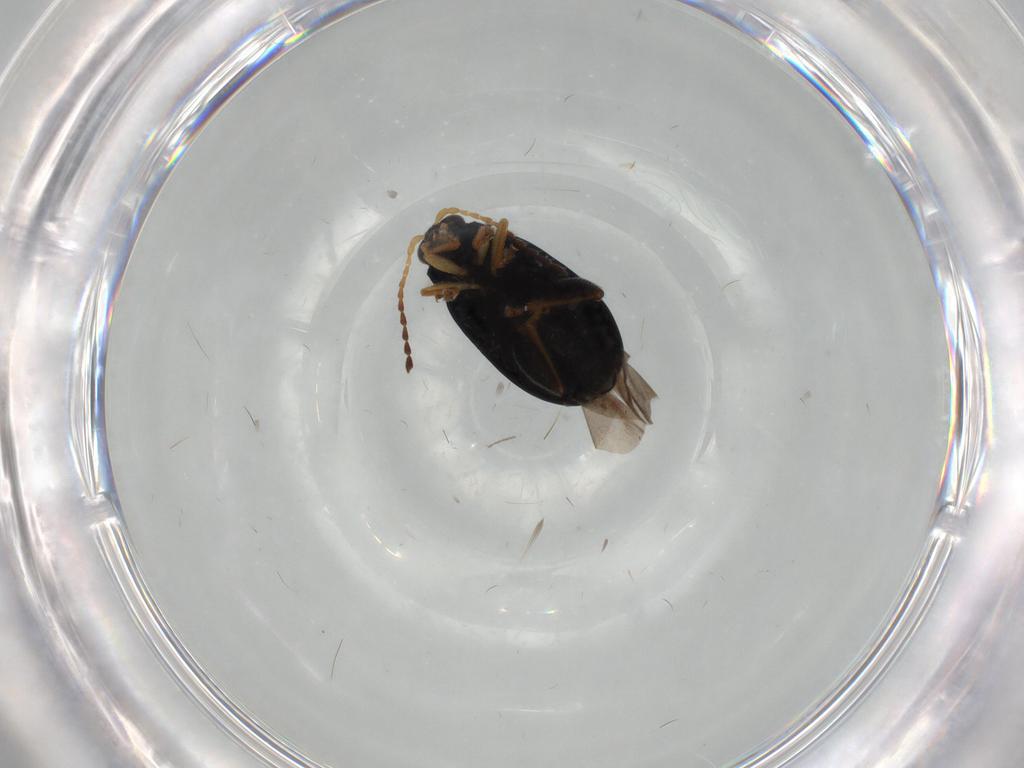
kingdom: Animalia
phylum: Arthropoda
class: Insecta
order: Coleoptera
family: Chrysomelidae
